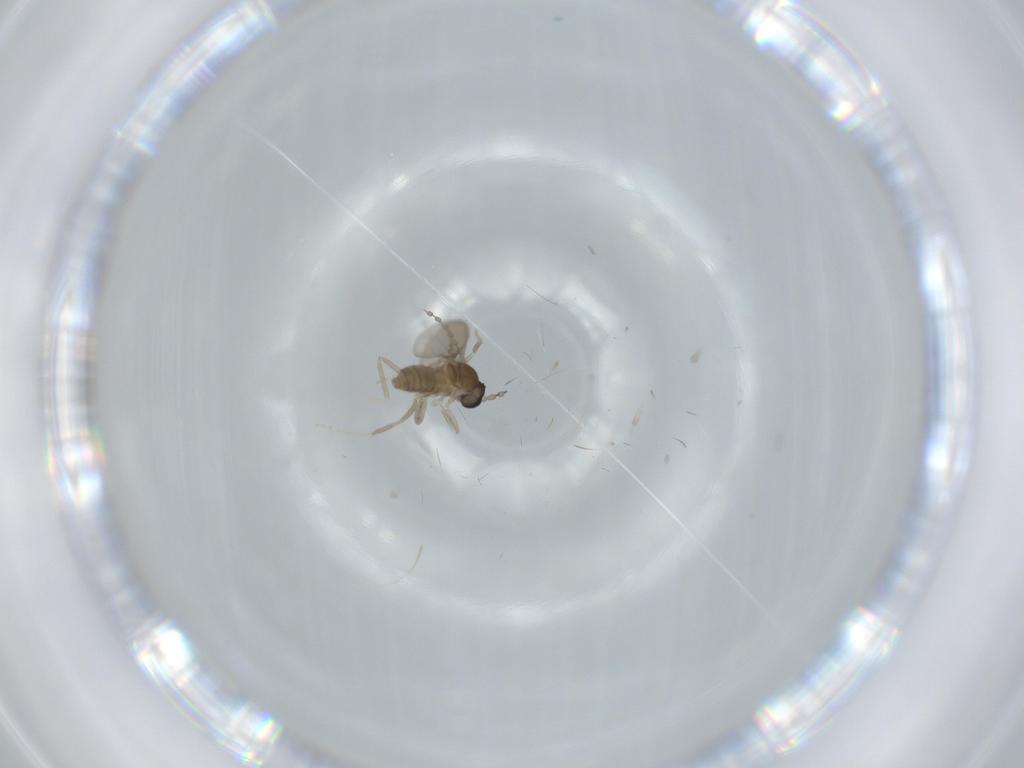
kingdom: Animalia
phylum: Arthropoda
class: Insecta
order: Diptera
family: Cecidomyiidae
